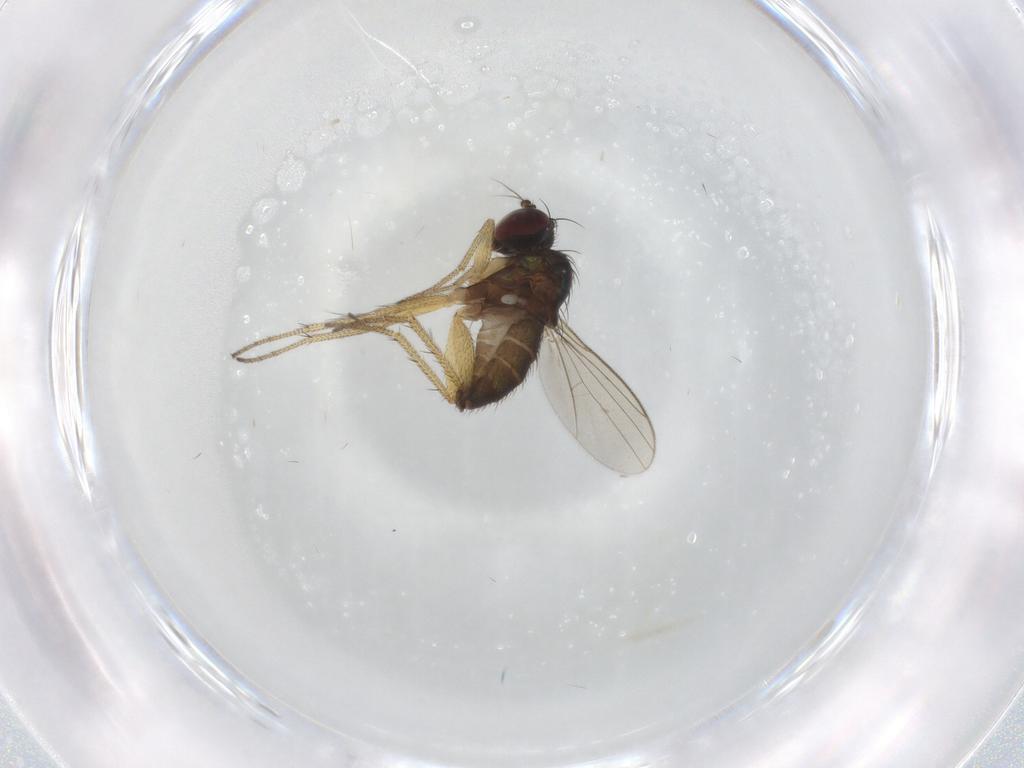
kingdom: Animalia
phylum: Arthropoda
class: Insecta
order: Diptera
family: Dolichopodidae
